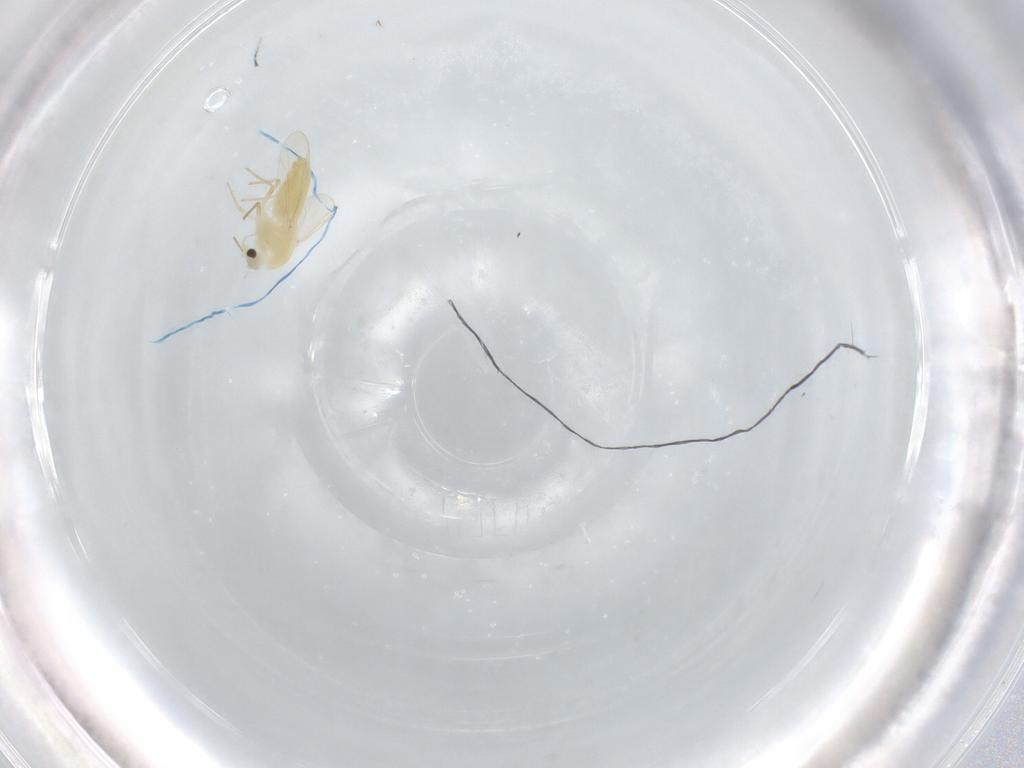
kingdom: Animalia
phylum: Arthropoda
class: Insecta
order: Diptera
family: Chironomidae
